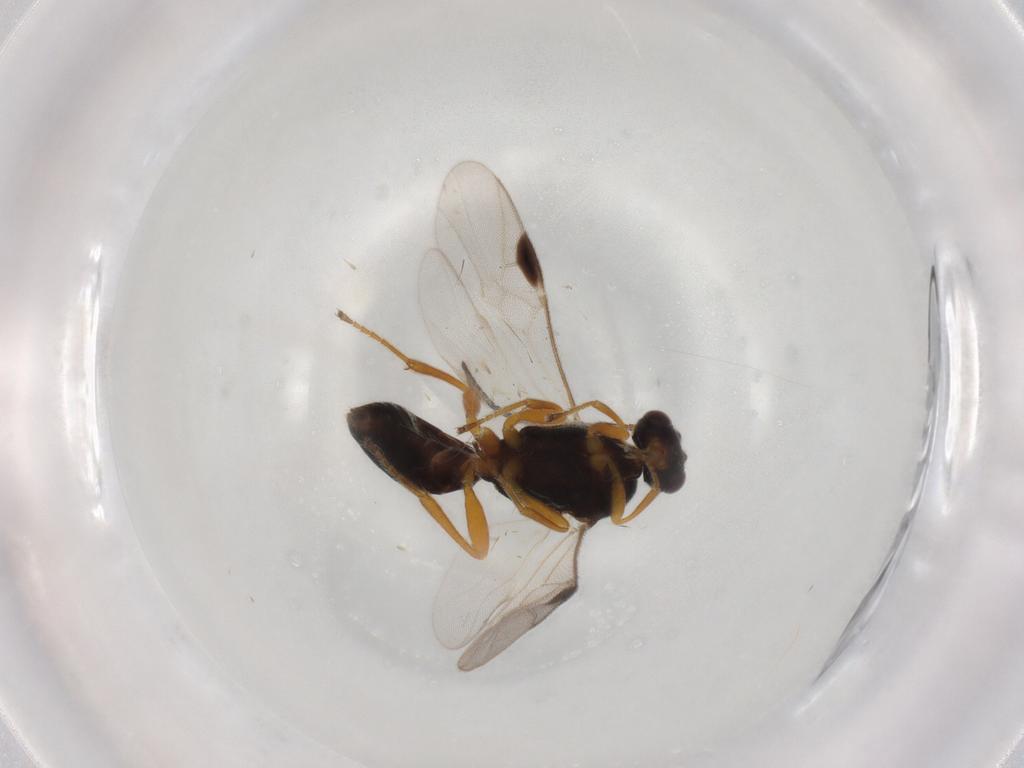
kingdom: Animalia
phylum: Arthropoda
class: Insecta
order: Hymenoptera
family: Braconidae
